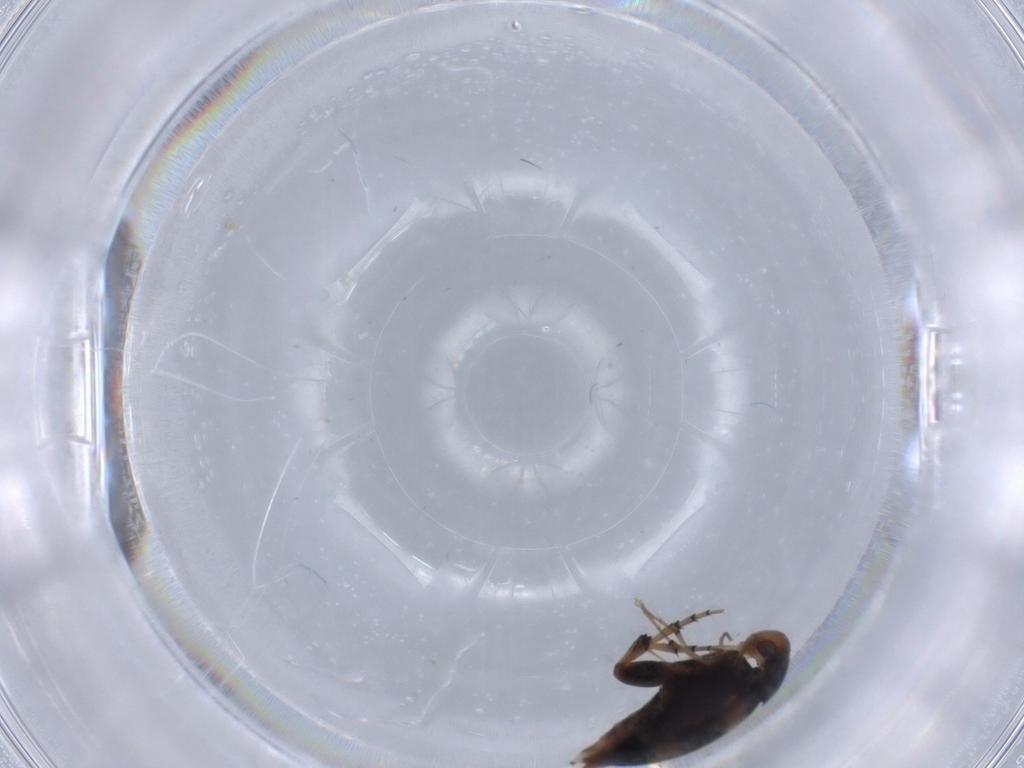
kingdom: Animalia
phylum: Arthropoda
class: Insecta
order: Coleoptera
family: Mordellidae
